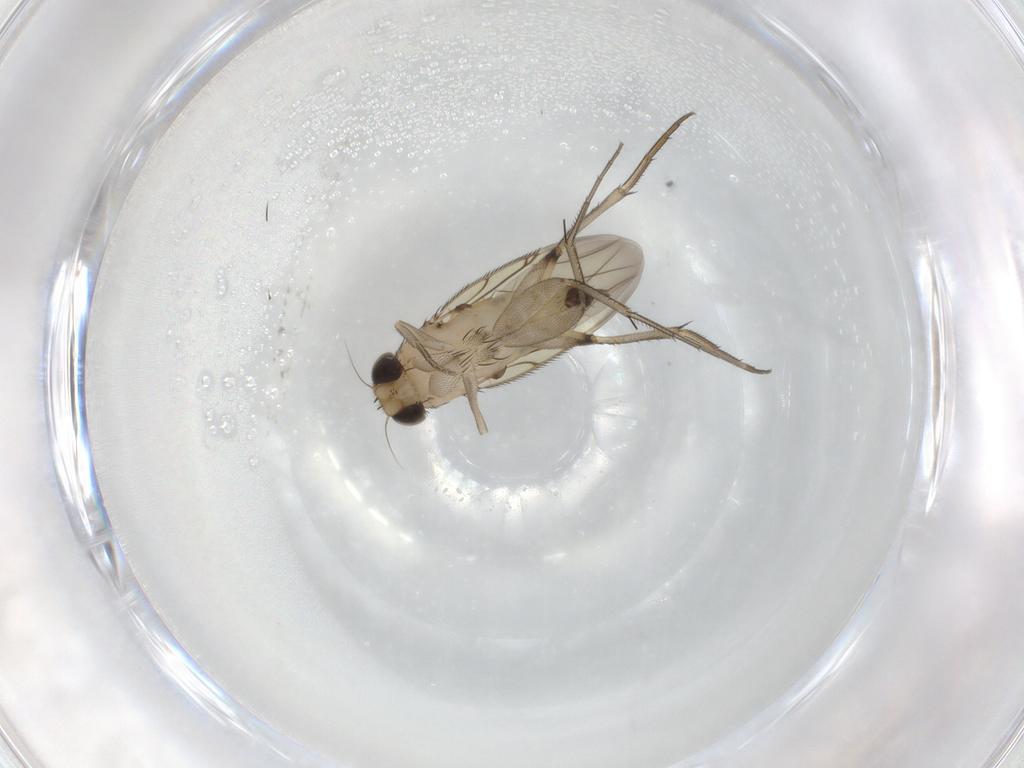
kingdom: Animalia
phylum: Arthropoda
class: Insecta
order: Diptera
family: Phoridae
